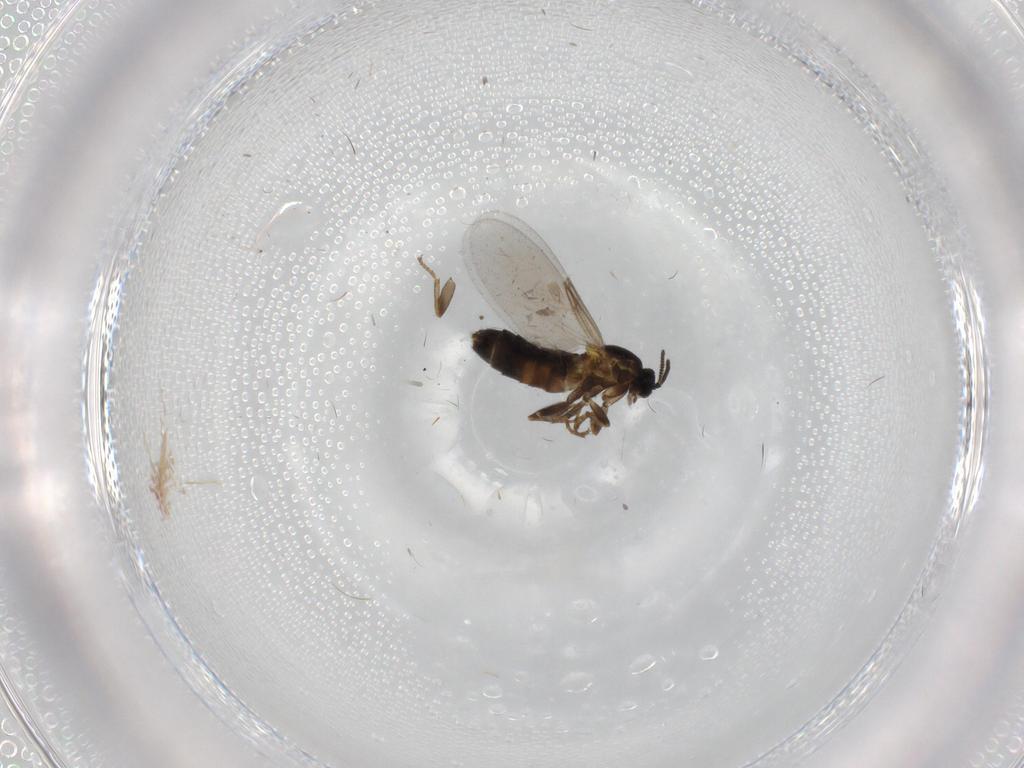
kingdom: Animalia
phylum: Arthropoda
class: Insecta
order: Diptera
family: Scatopsidae
